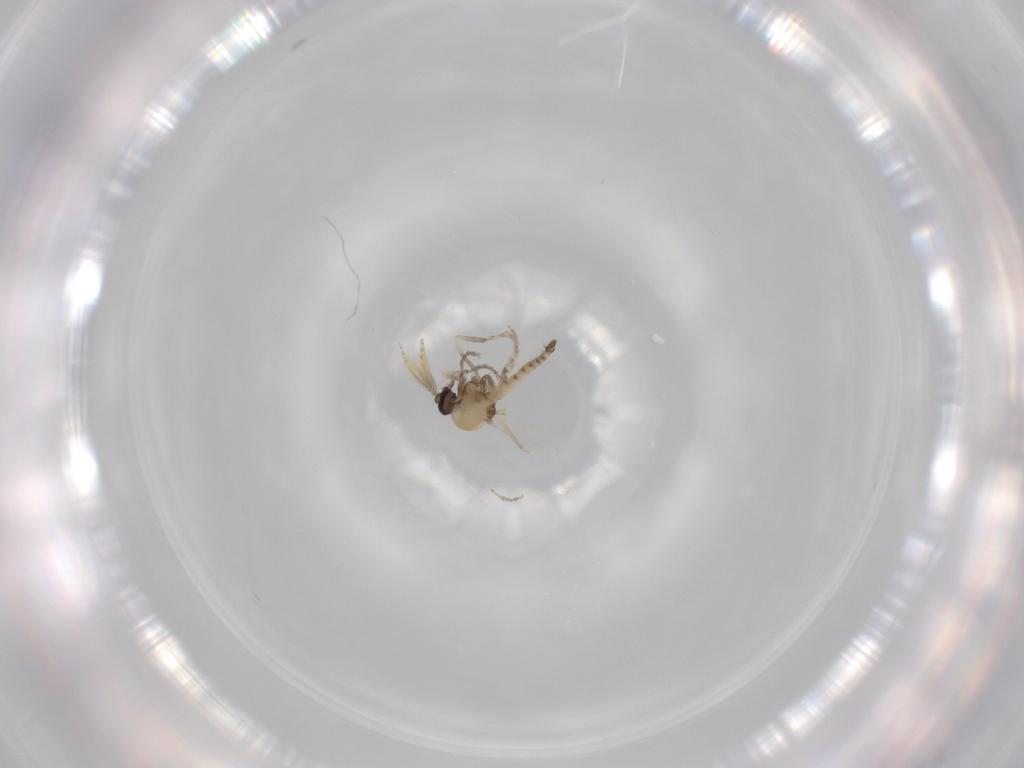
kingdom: Animalia
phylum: Arthropoda
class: Insecta
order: Diptera
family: Ceratopogonidae
